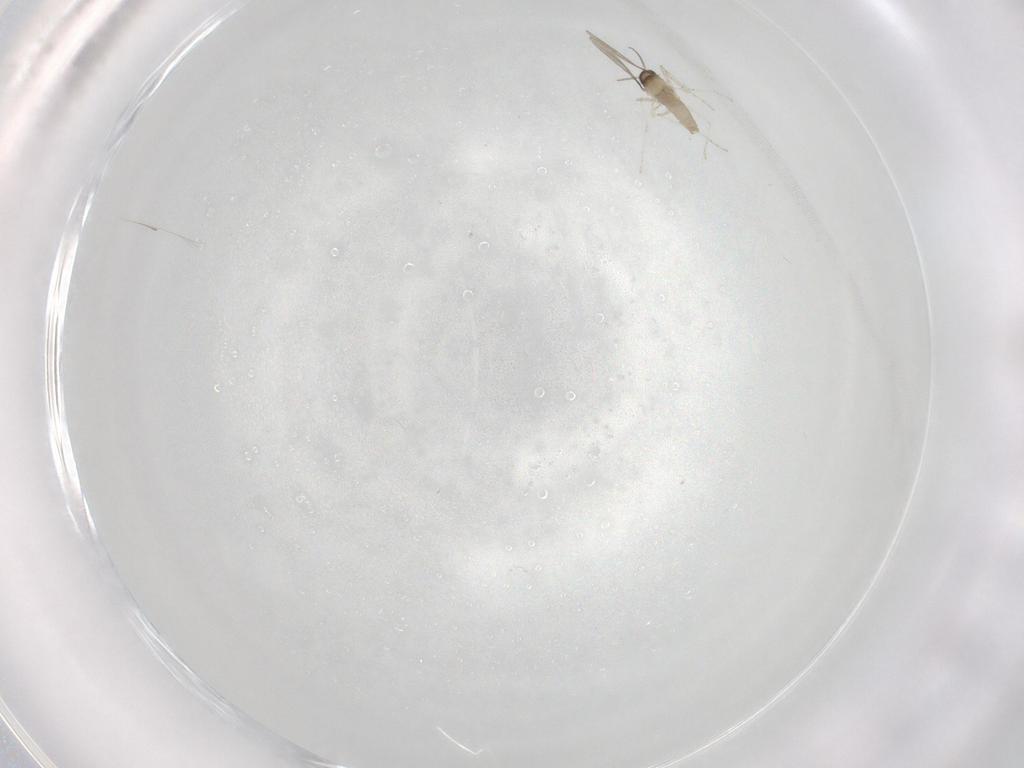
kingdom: Animalia
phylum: Arthropoda
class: Insecta
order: Diptera
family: Cecidomyiidae
